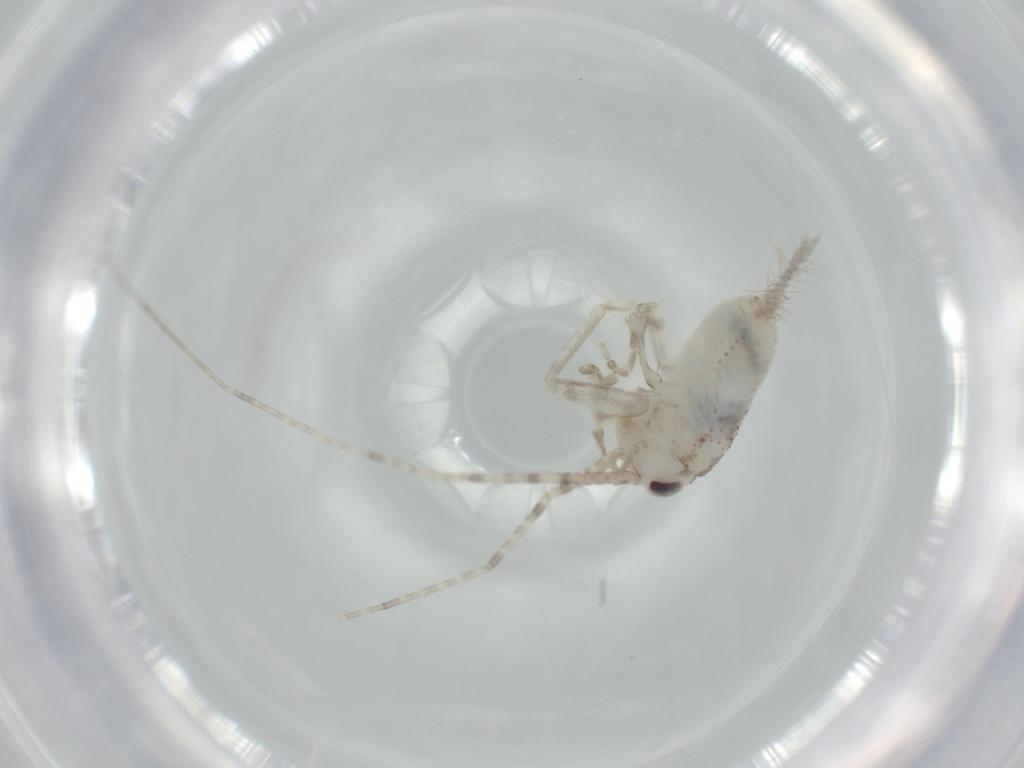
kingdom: Animalia
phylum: Arthropoda
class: Insecta
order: Orthoptera
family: Trigonidiidae
